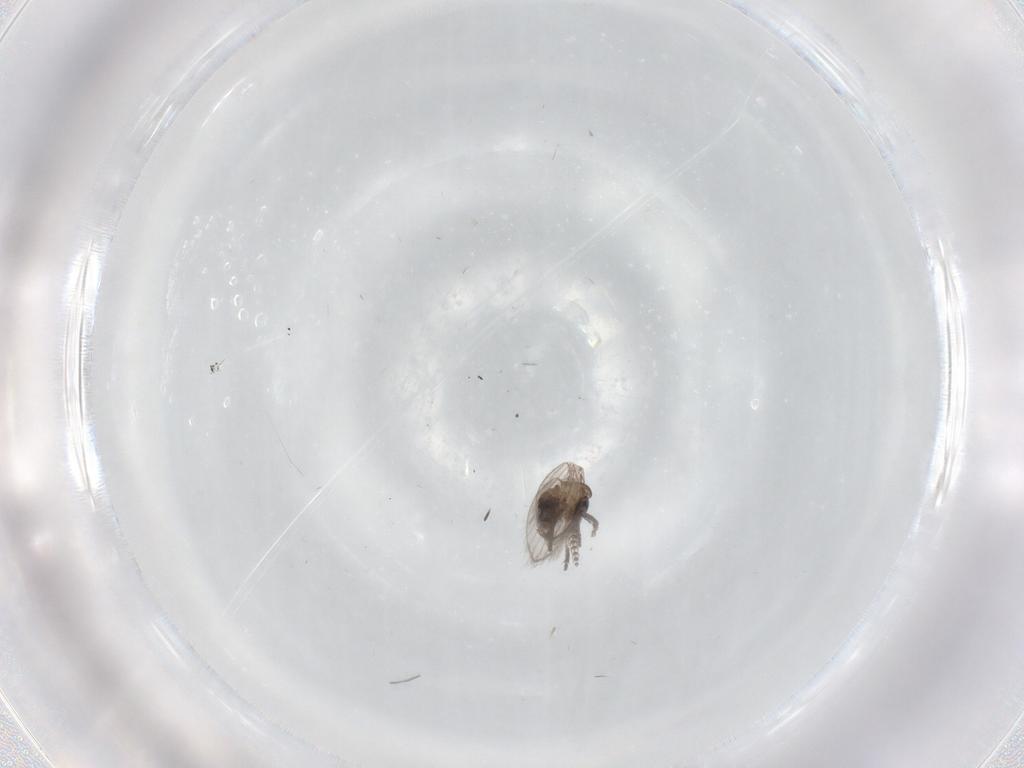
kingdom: Animalia
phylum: Arthropoda
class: Insecta
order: Diptera
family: Psychodidae
